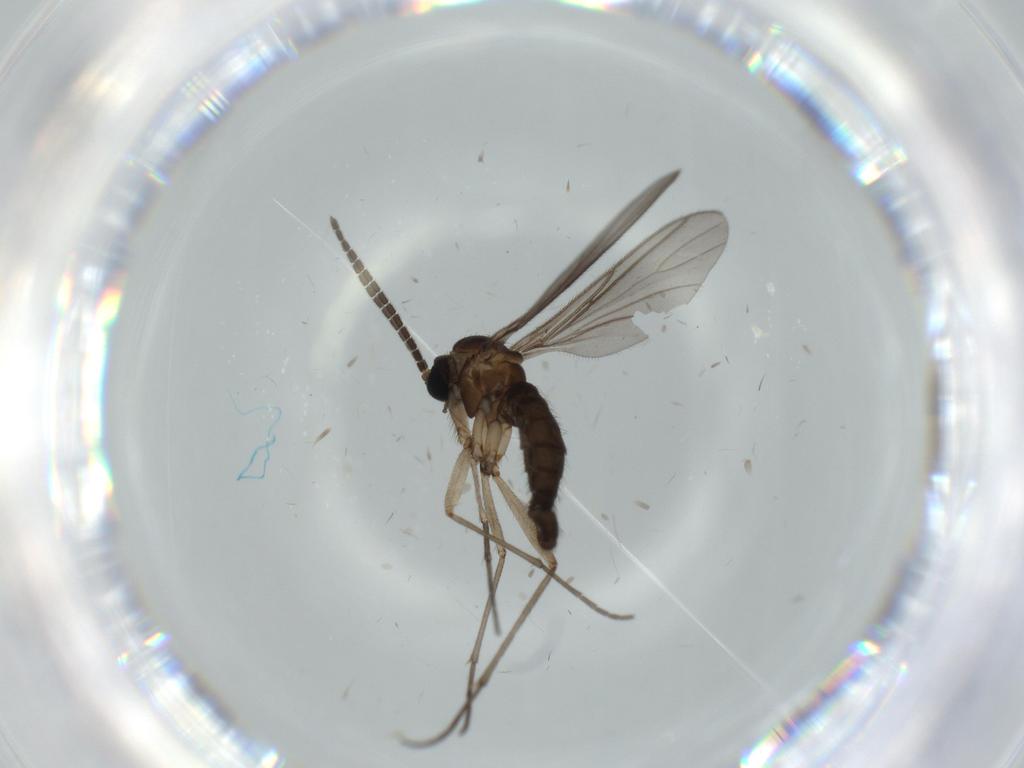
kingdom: Animalia
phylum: Arthropoda
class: Insecta
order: Diptera
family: Sciaridae
